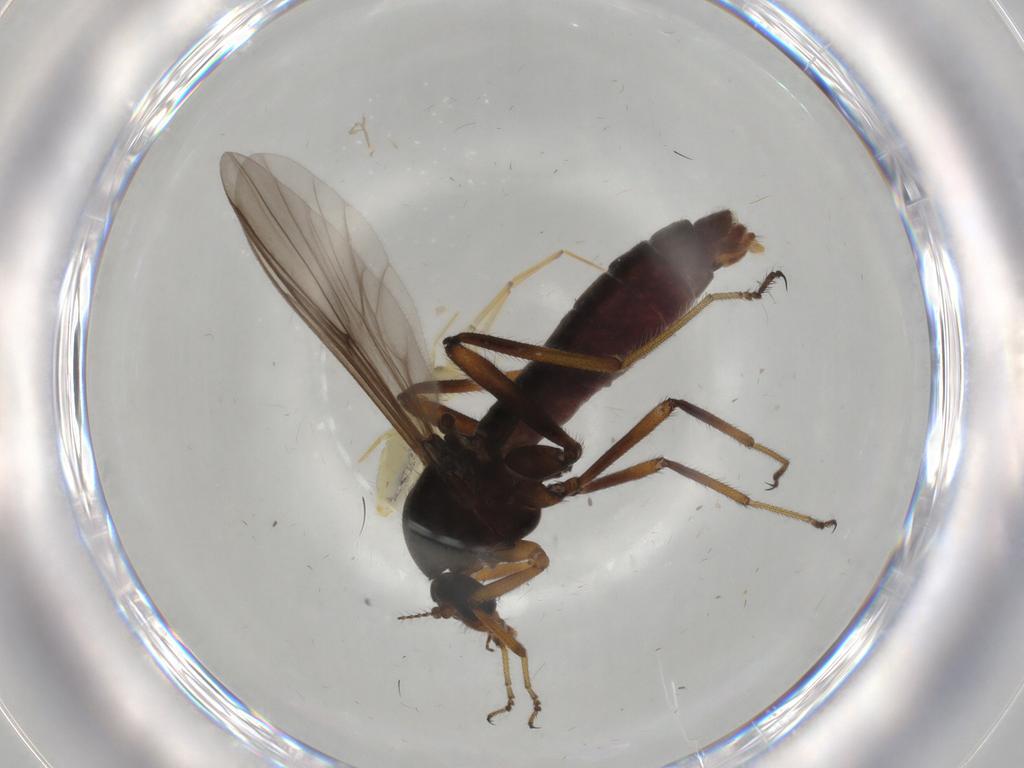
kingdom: Animalia
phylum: Arthropoda
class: Insecta
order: Diptera
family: Ceratopogonidae
